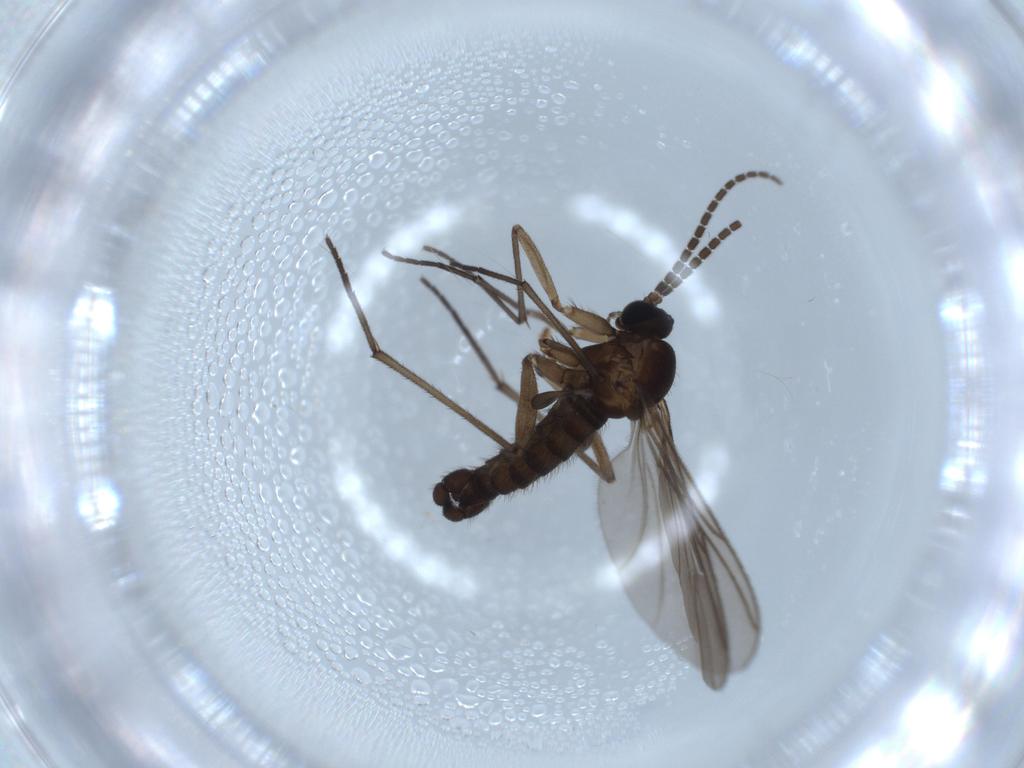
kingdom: Animalia
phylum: Arthropoda
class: Insecta
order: Diptera
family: Sciaridae
